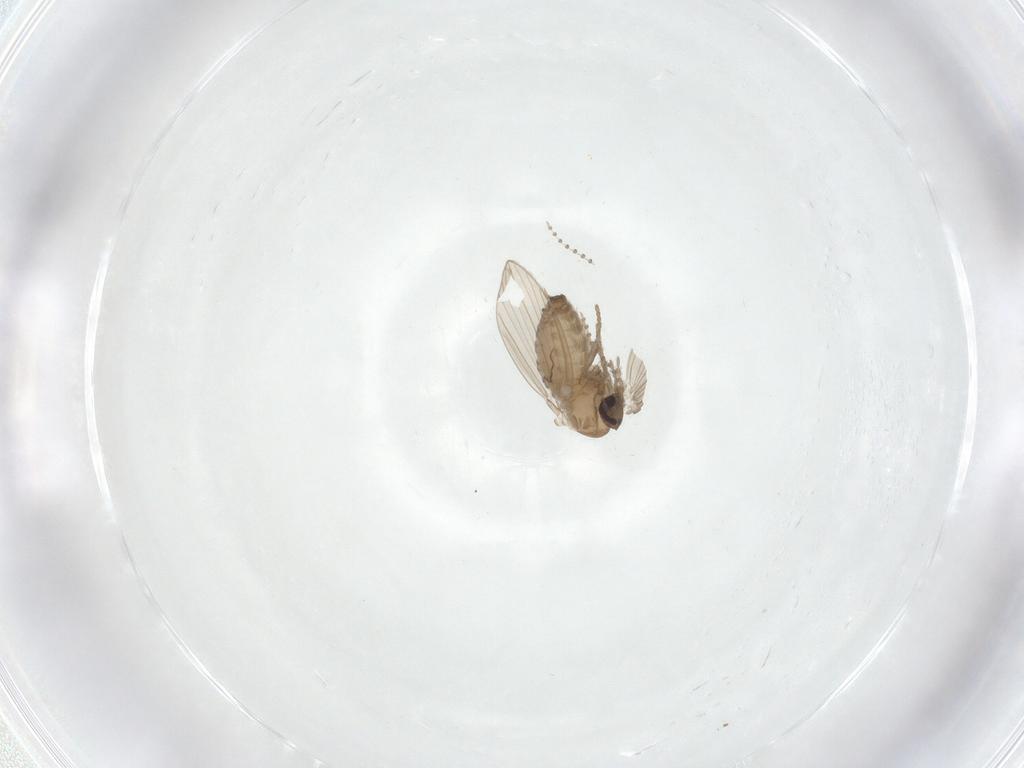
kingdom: Animalia
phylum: Arthropoda
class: Insecta
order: Diptera
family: Psychodidae
